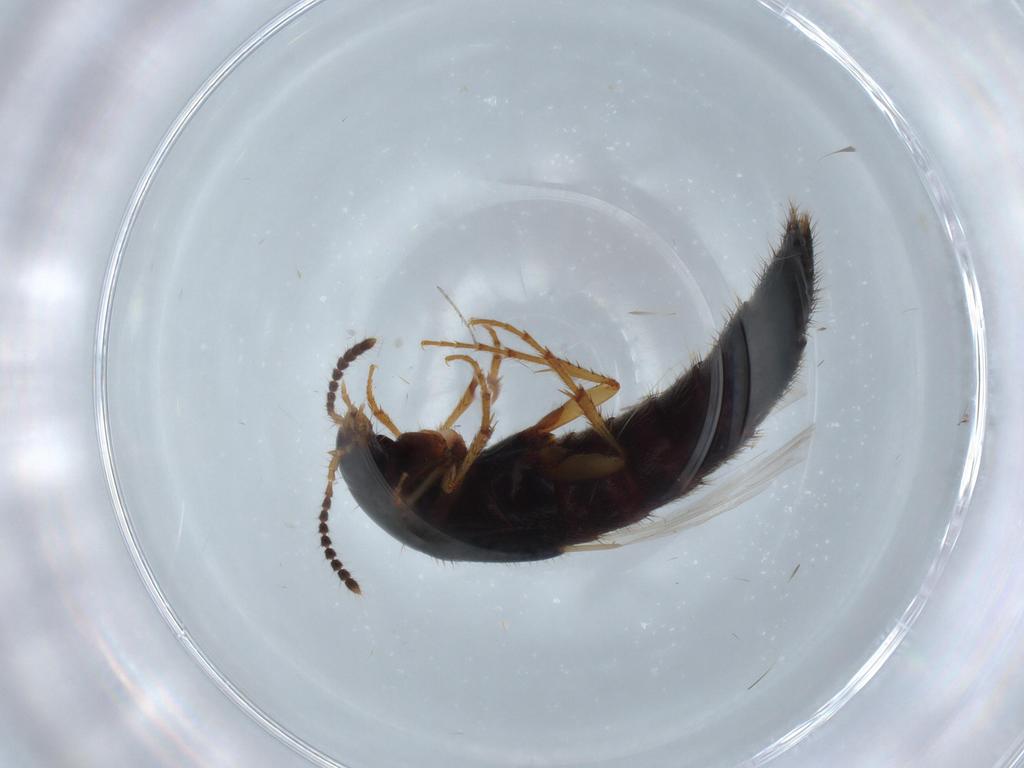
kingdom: Animalia
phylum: Arthropoda
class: Insecta
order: Coleoptera
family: Staphylinidae
